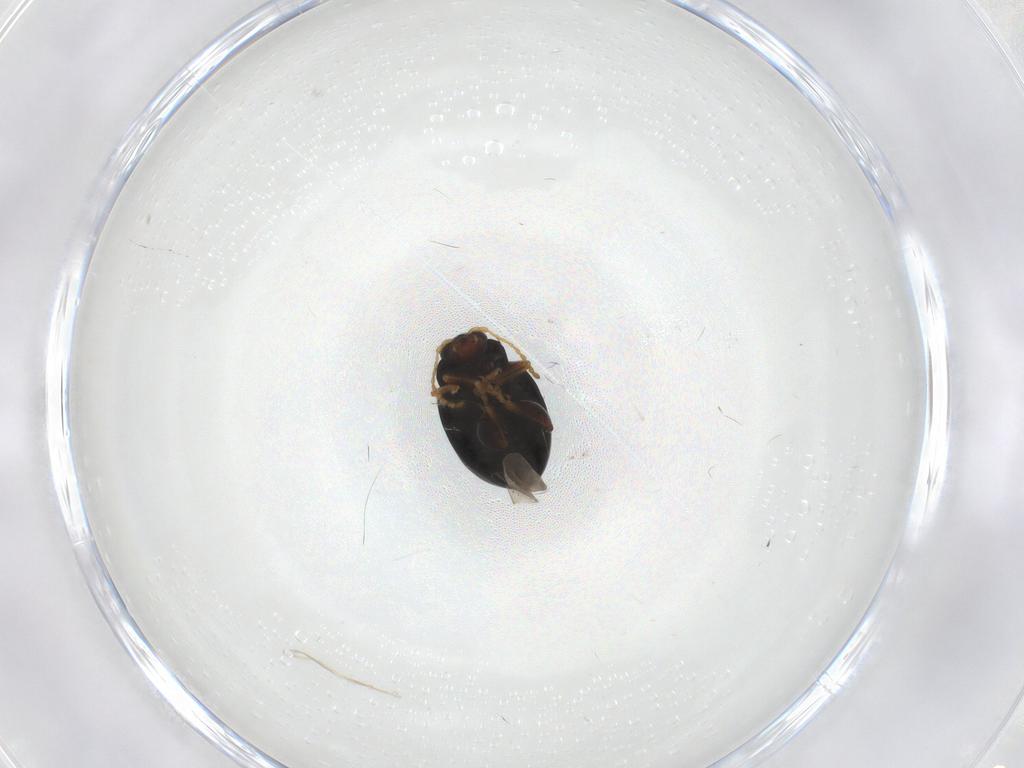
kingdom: Animalia
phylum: Arthropoda
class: Insecta
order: Coleoptera
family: Chrysomelidae
